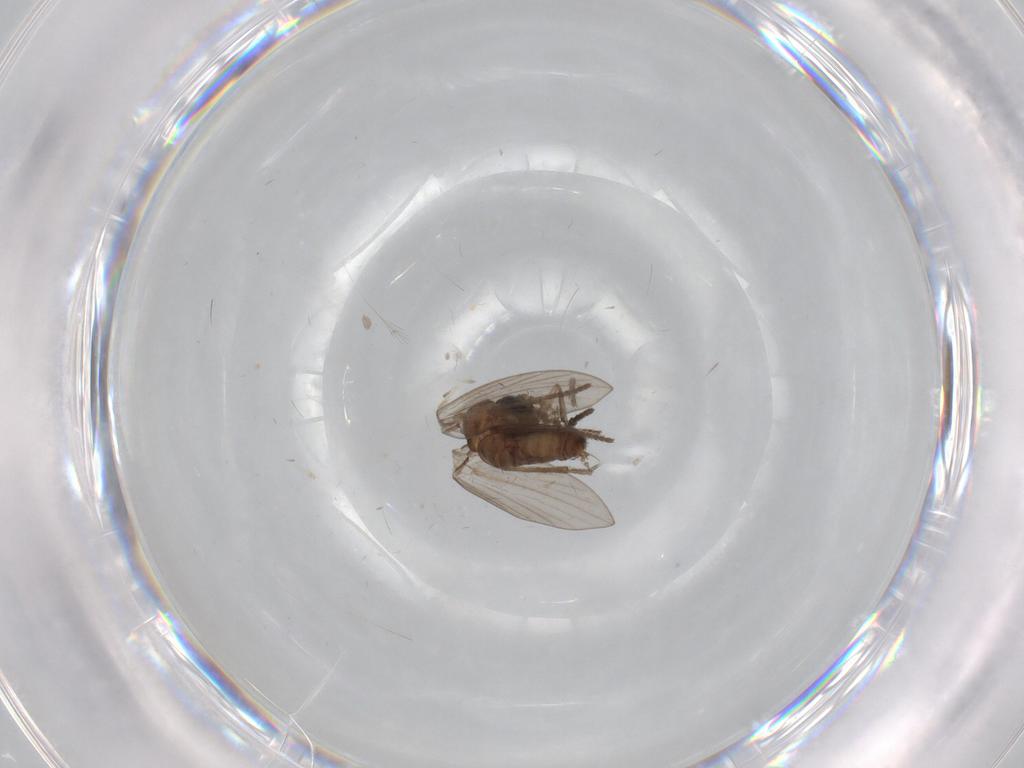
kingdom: Animalia
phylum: Arthropoda
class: Insecta
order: Diptera
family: Psychodidae
